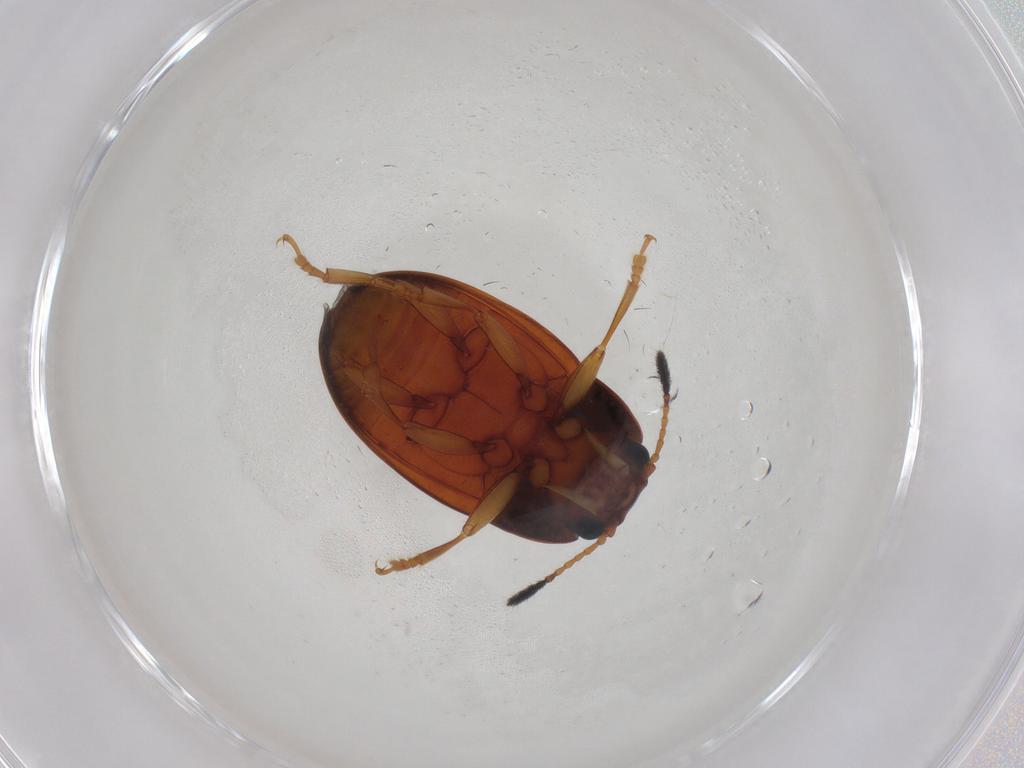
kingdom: Animalia
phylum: Arthropoda
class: Insecta
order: Coleoptera
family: Erotylidae
